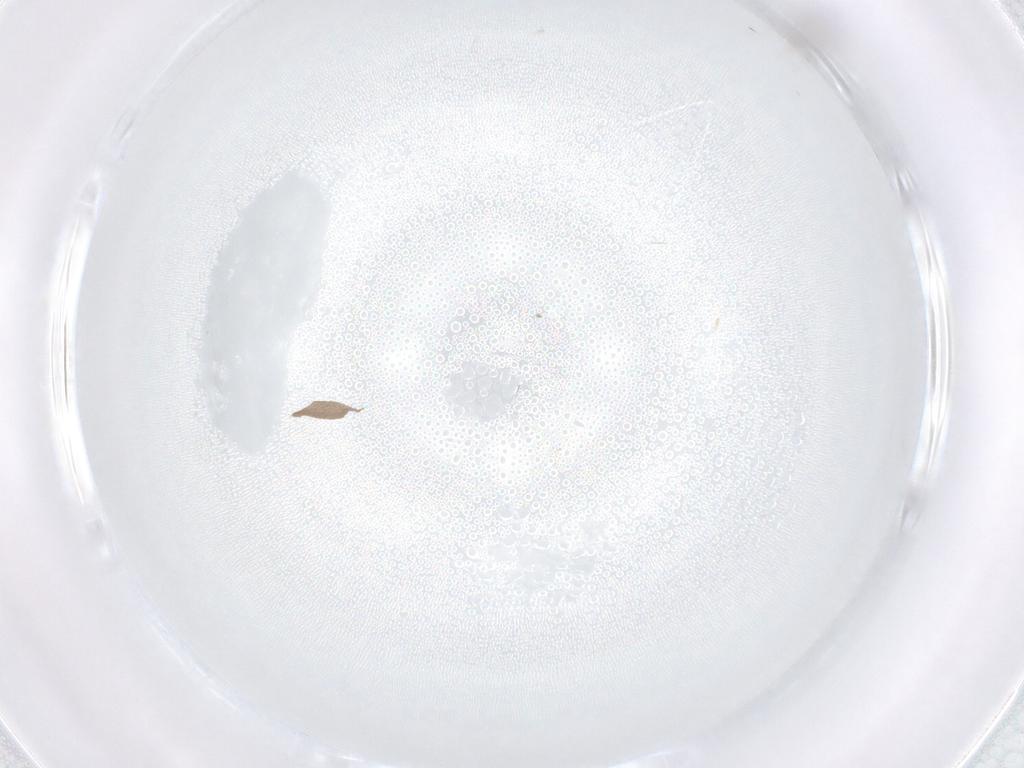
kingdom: Animalia
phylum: Arthropoda
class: Insecta
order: Diptera
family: Cecidomyiidae
